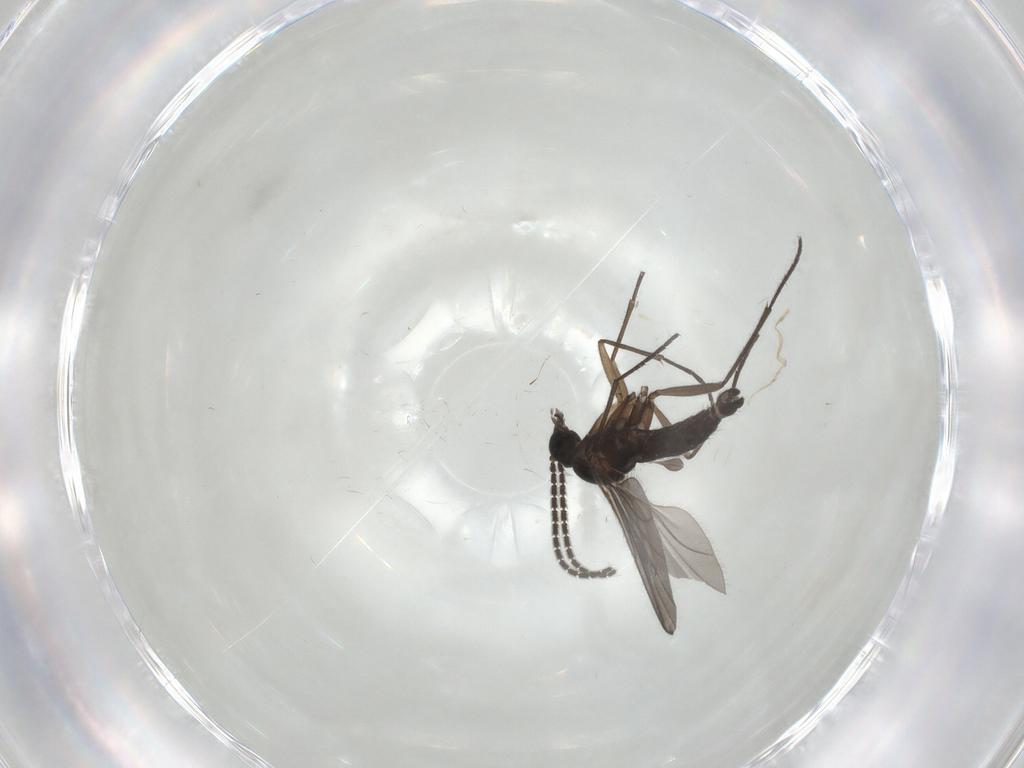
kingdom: Animalia
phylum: Arthropoda
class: Insecta
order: Diptera
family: Sciaridae
